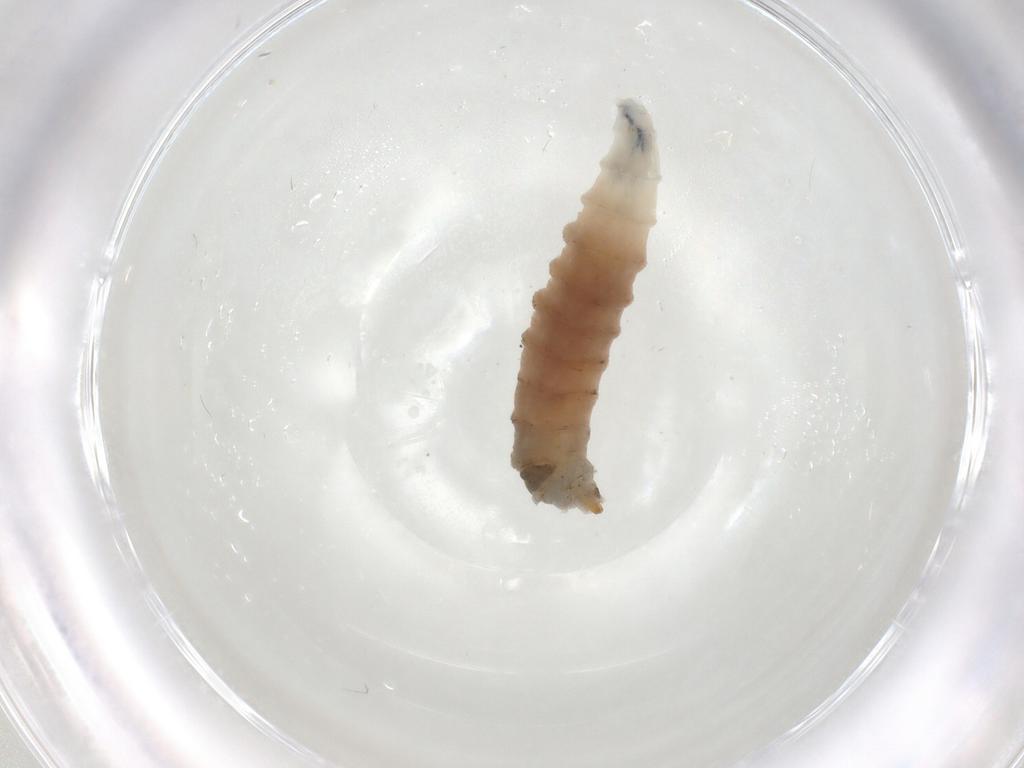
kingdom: Animalia
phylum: Arthropoda
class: Insecta
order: Diptera
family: Drosophilidae
